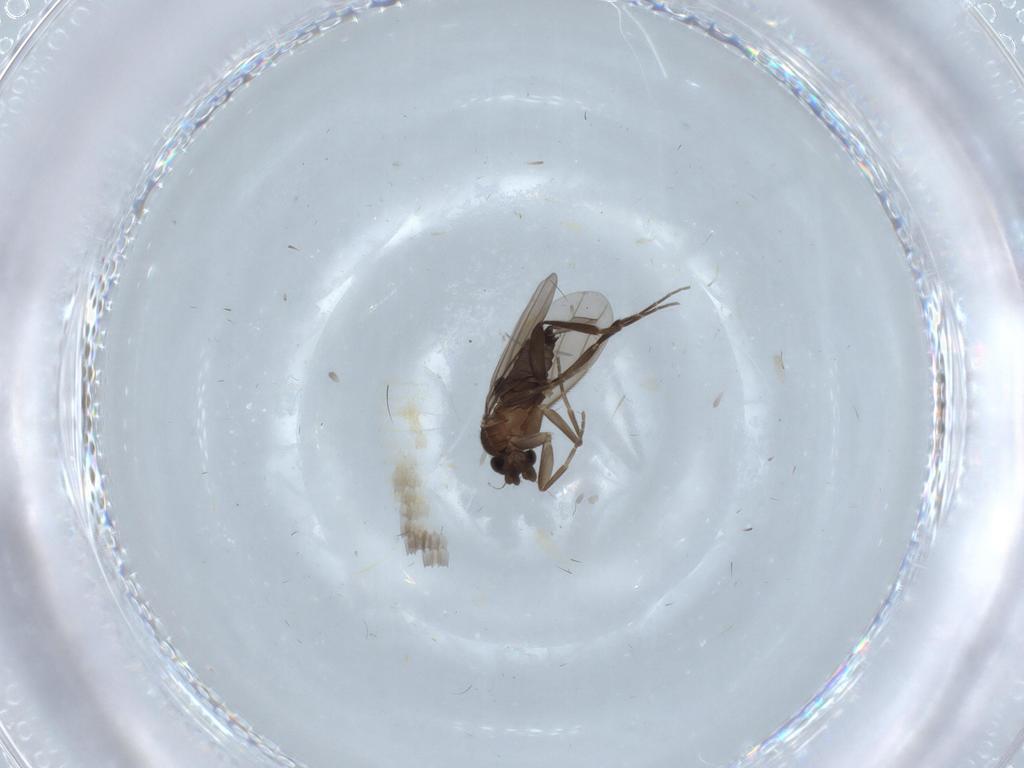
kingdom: Animalia
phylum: Arthropoda
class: Insecta
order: Diptera
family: Phoridae
